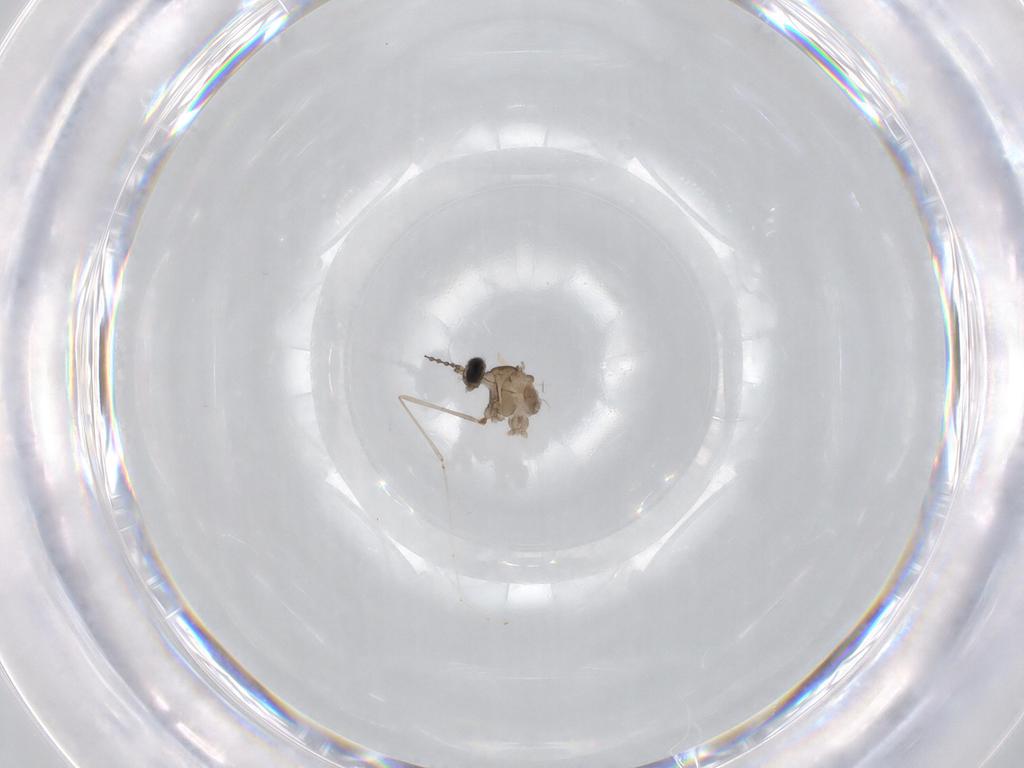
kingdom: Animalia
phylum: Arthropoda
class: Insecta
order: Diptera
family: Cecidomyiidae
